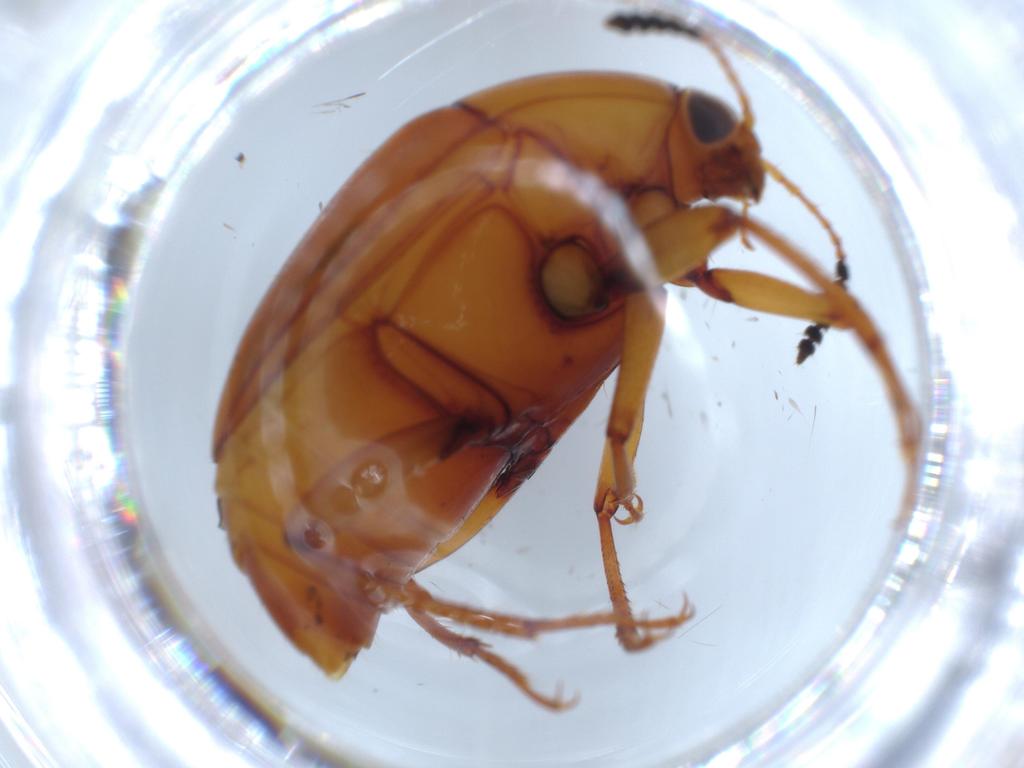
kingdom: Animalia
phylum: Arthropoda
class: Insecta
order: Coleoptera
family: Staphylinidae
